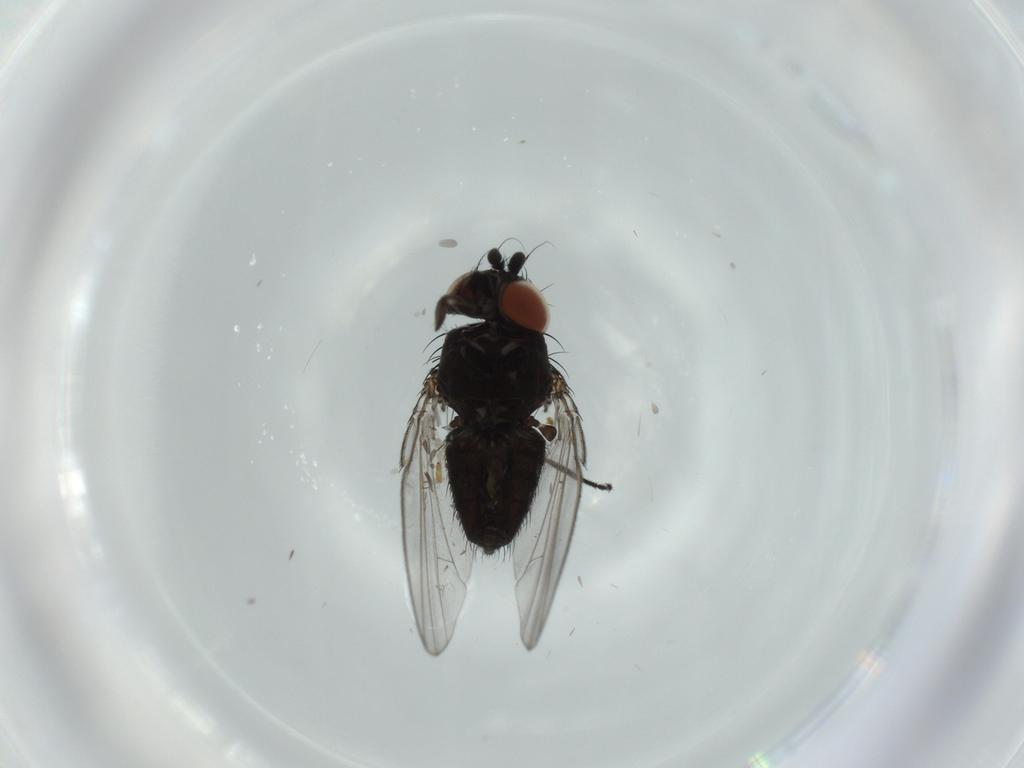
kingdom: Animalia
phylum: Arthropoda
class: Insecta
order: Diptera
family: Milichiidae
